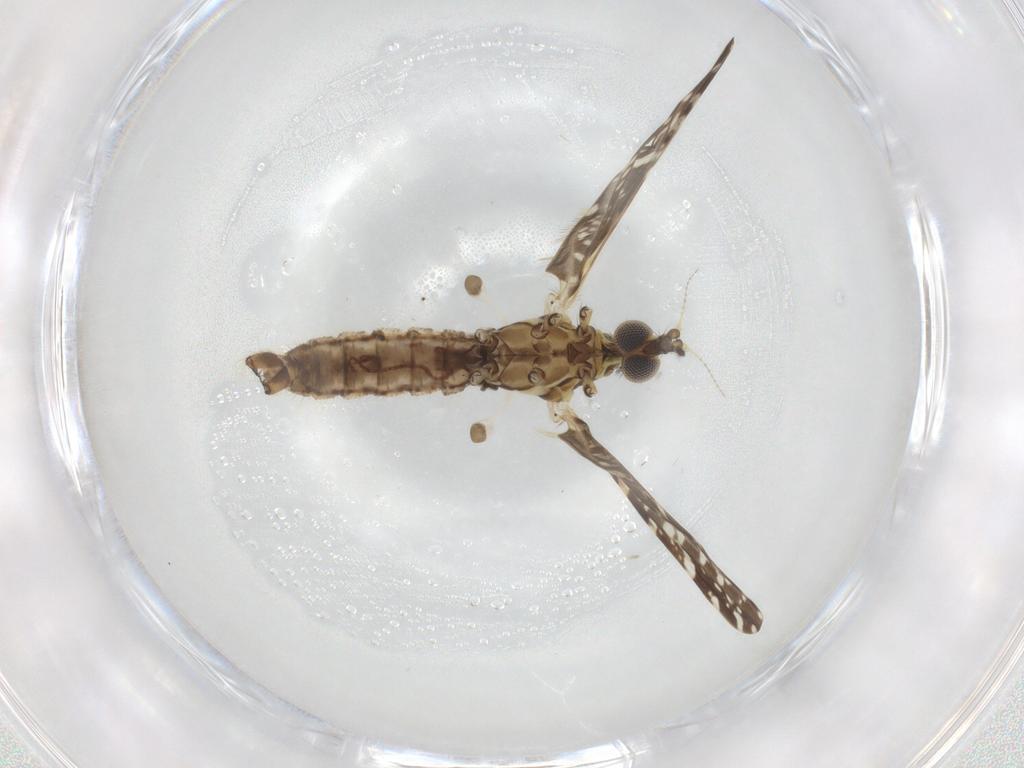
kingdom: Animalia
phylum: Arthropoda
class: Insecta
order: Diptera
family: Limoniidae
